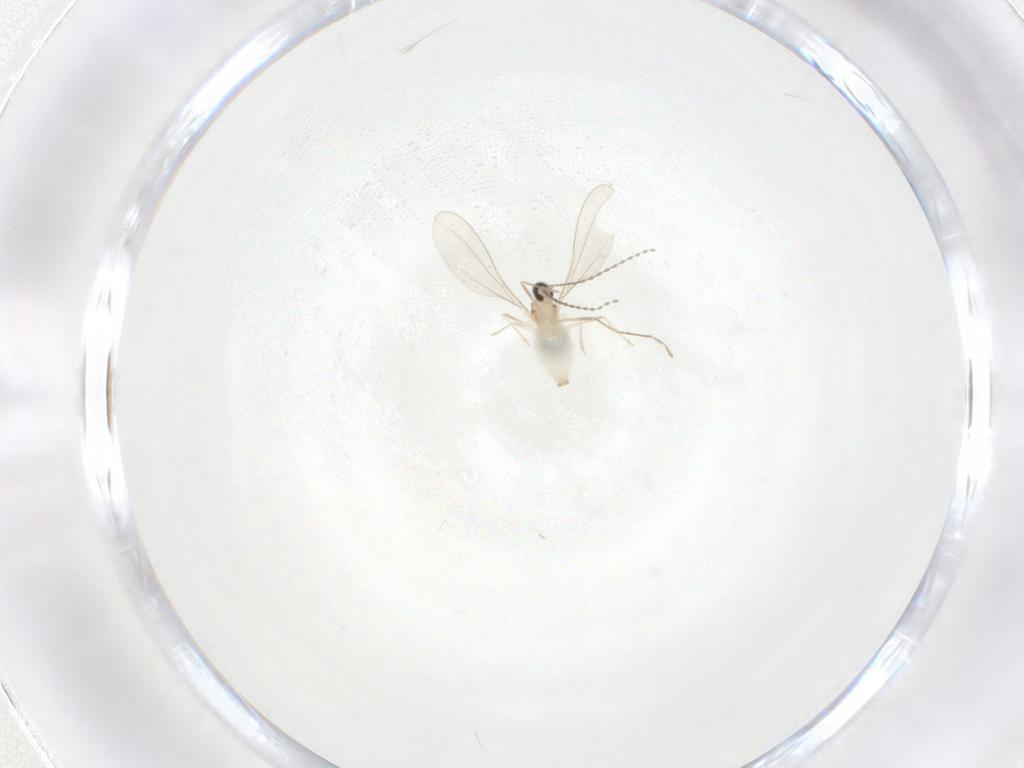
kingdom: Animalia
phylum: Arthropoda
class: Insecta
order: Diptera
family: Cecidomyiidae
